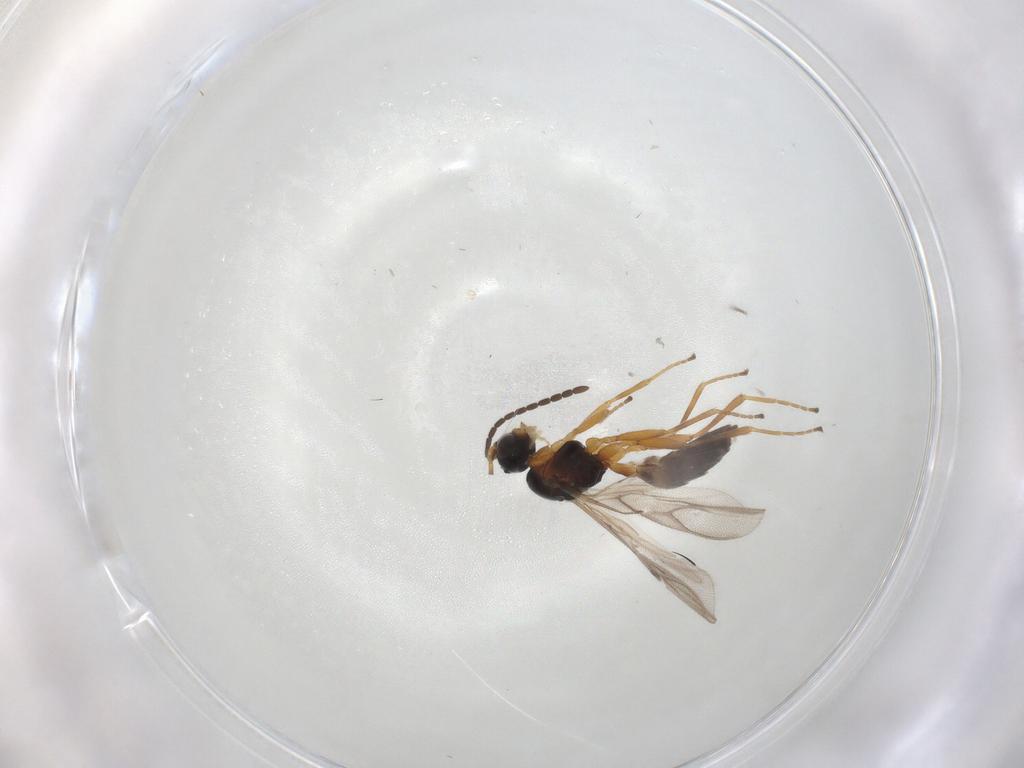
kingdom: Animalia
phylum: Arthropoda
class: Insecta
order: Hymenoptera
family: Braconidae
